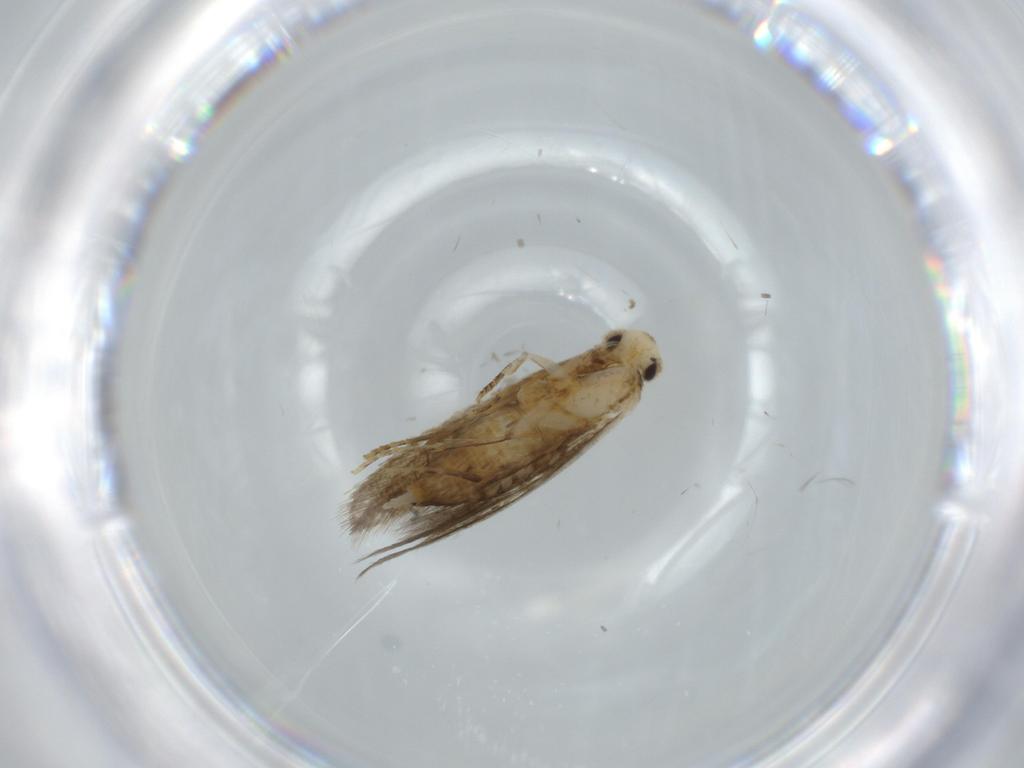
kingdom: Animalia
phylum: Arthropoda
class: Insecta
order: Lepidoptera
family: Tineidae
